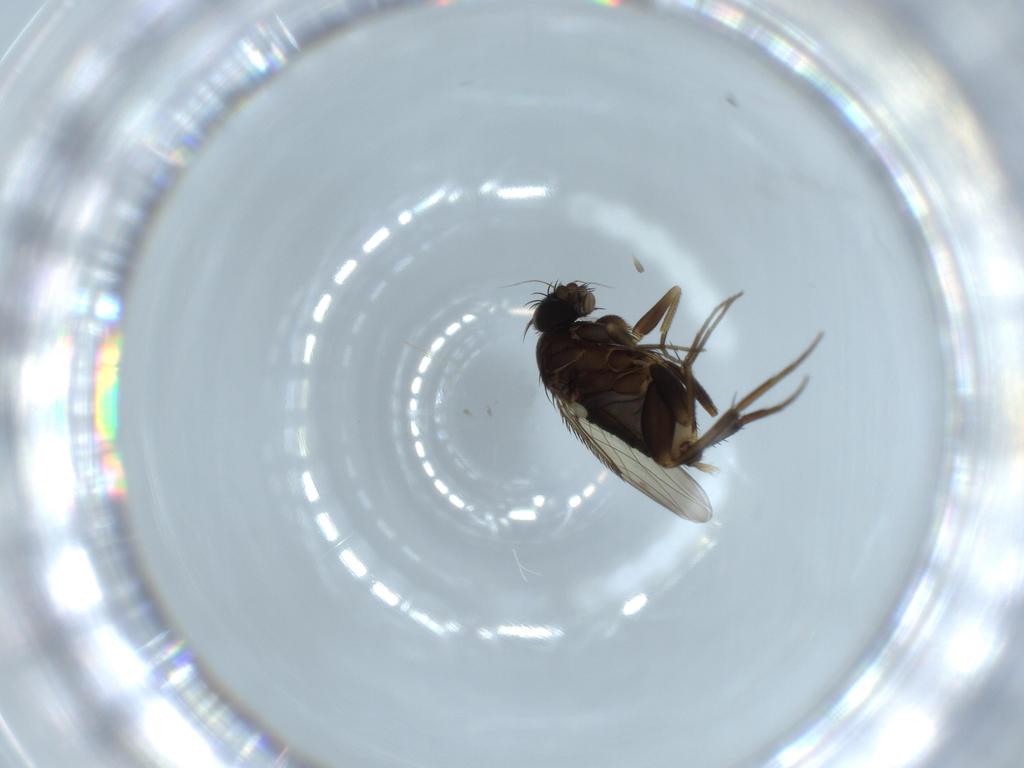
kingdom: Animalia
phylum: Arthropoda
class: Insecta
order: Diptera
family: Phoridae
